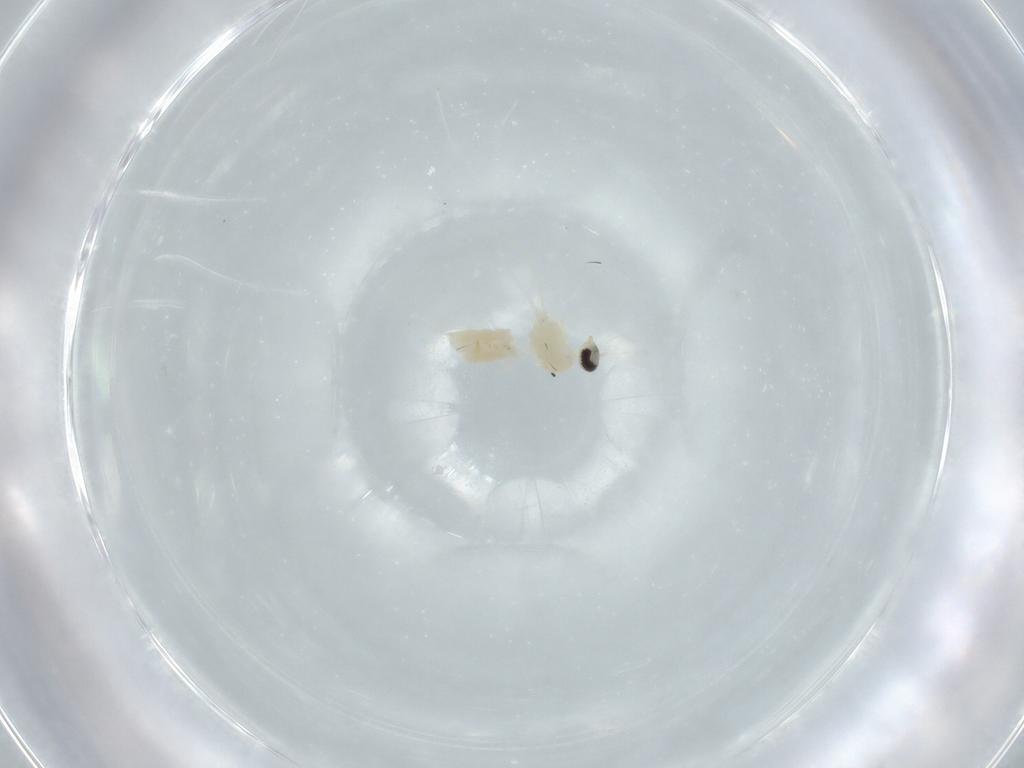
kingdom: Animalia
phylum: Arthropoda
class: Insecta
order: Diptera
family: Cecidomyiidae
